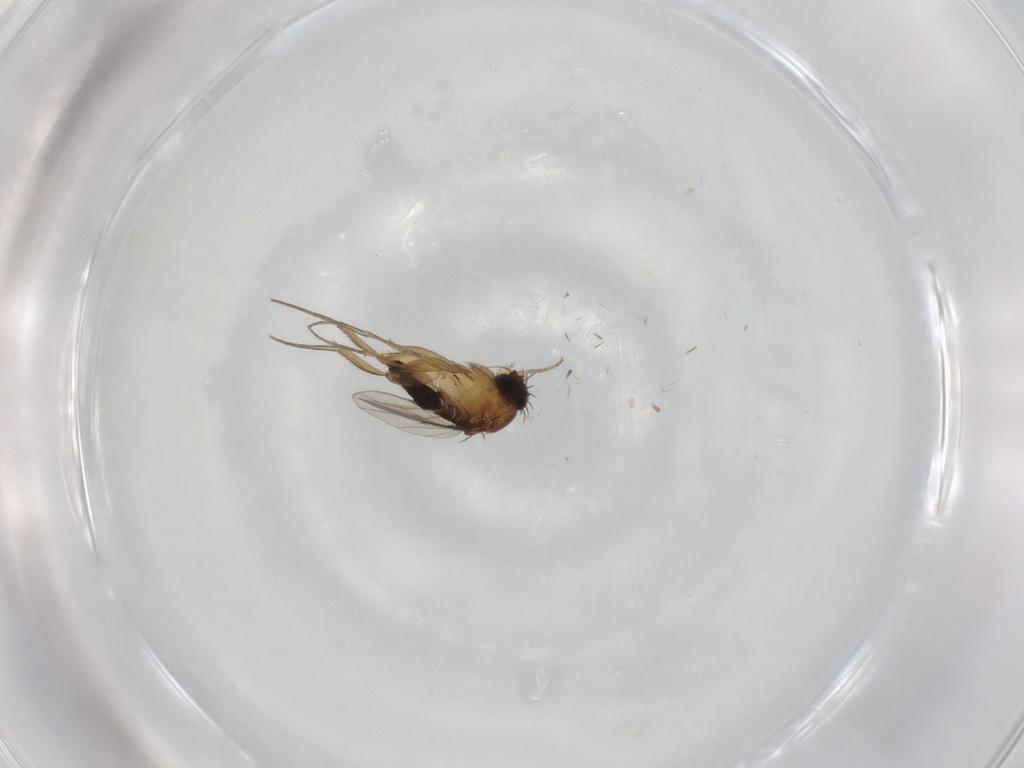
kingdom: Animalia
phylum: Arthropoda
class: Insecta
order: Diptera
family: Phoridae
